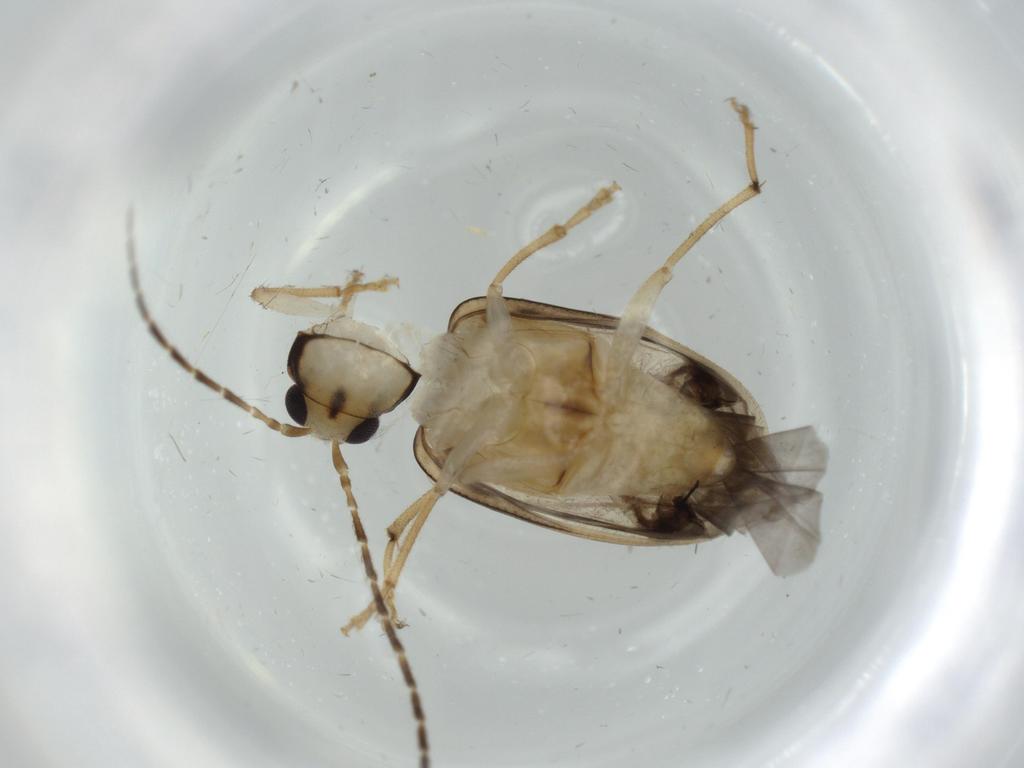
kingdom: Animalia
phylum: Arthropoda
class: Insecta
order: Coleoptera
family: Chrysomelidae
